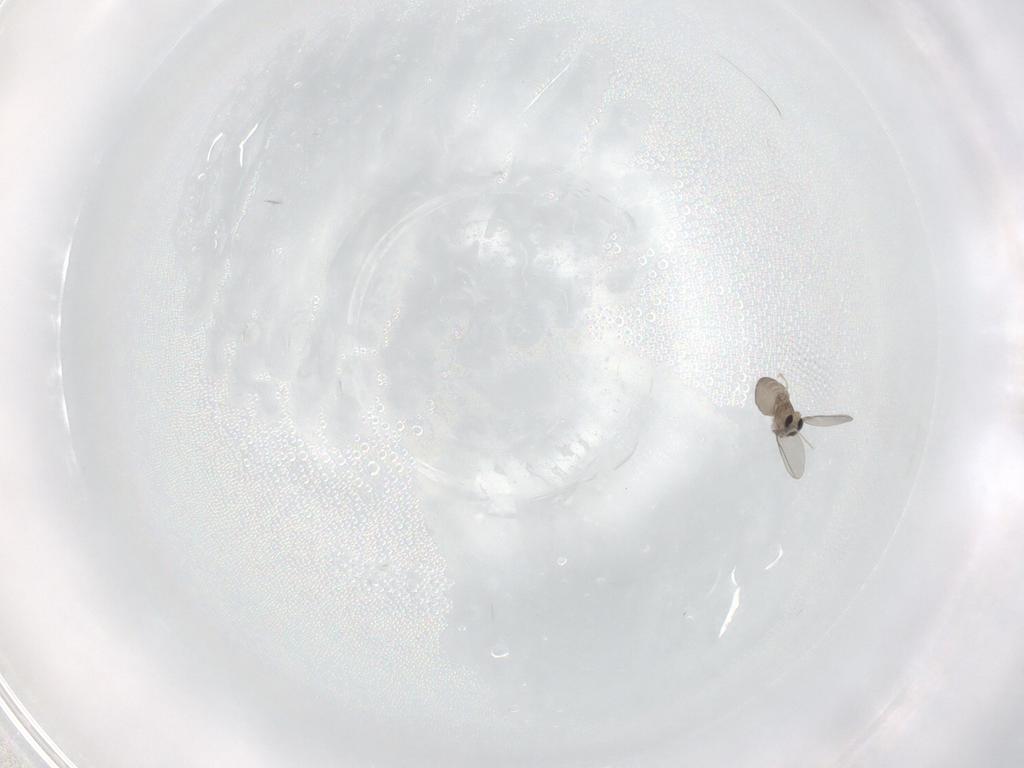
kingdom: Animalia
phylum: Arthropoda
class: Insecta
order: Diptera
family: Cecidomyiidae
